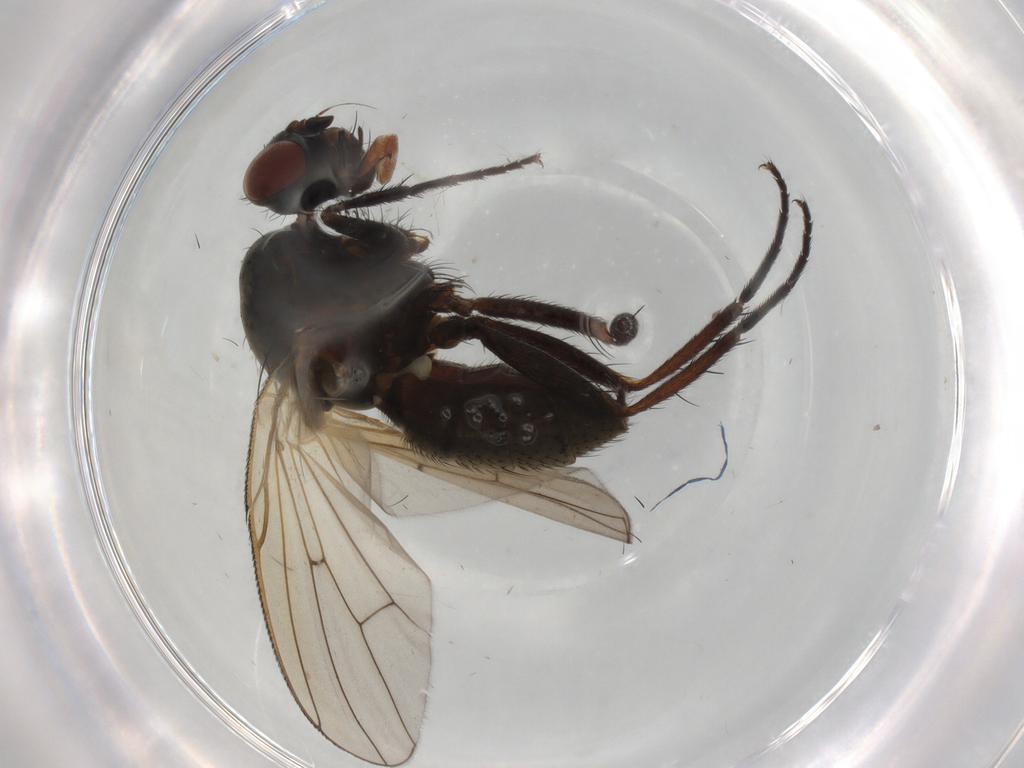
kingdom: Animalia
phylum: Arthropoda
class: Insecta
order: Diptera
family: Anthomyiidae
